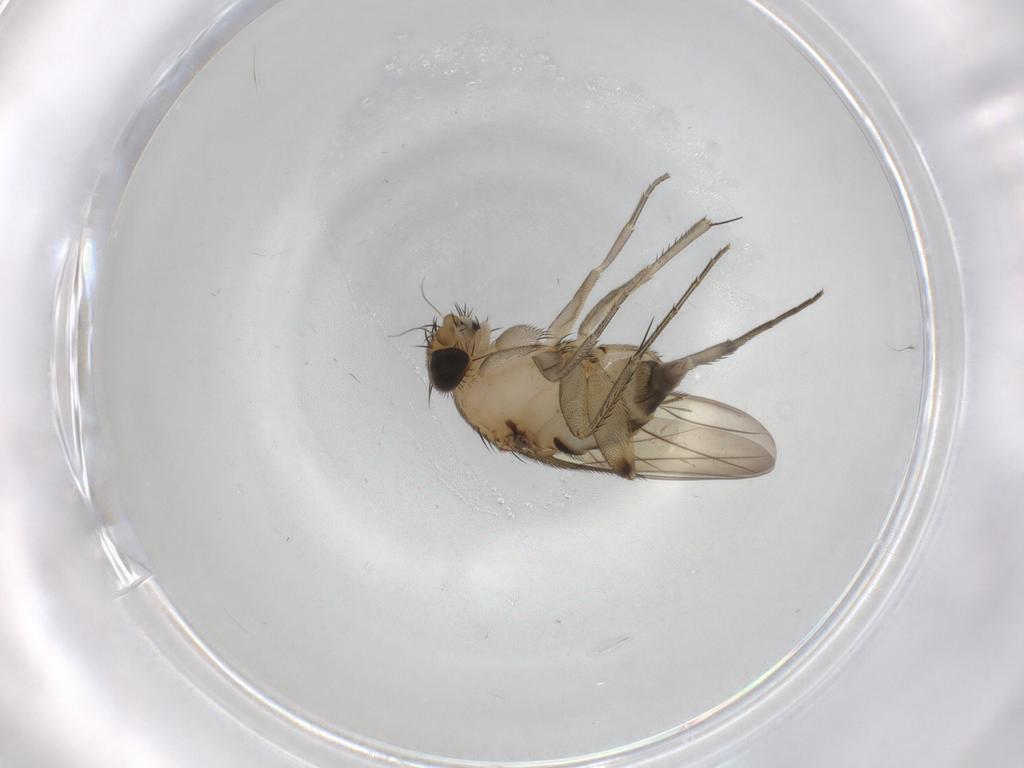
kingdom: Animalia
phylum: Arthropoda
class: Insecta
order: Diptera
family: Phoridae
